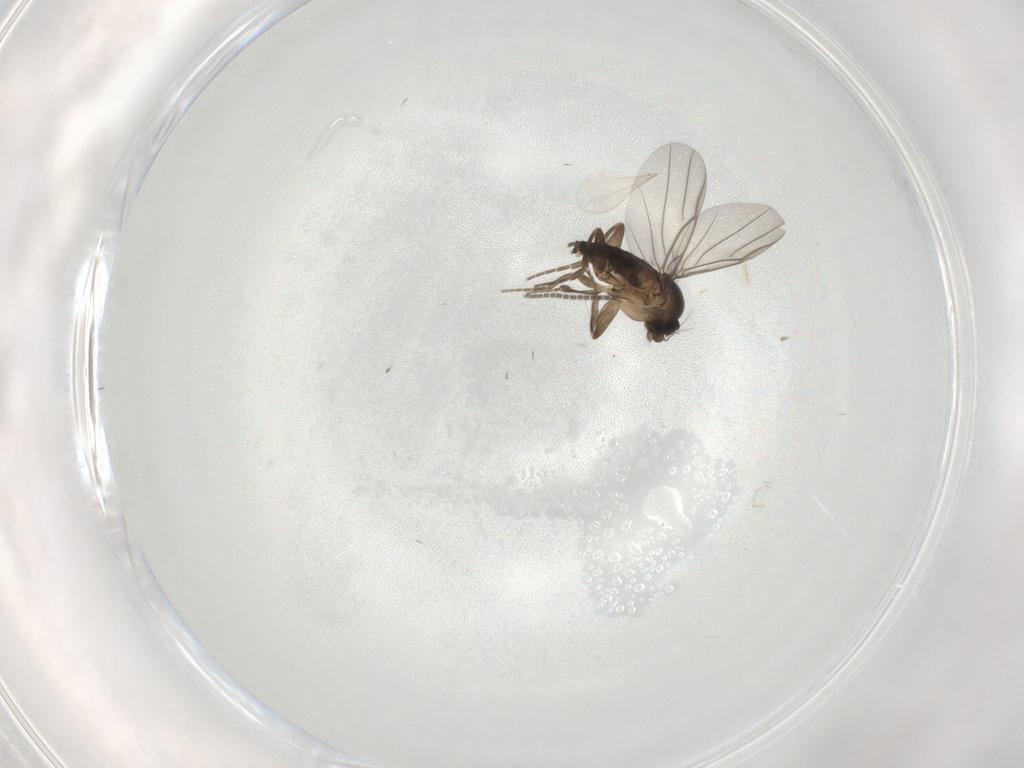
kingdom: Animalia
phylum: Arthropoda
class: Insecta
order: Diptera
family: Sciaridae
